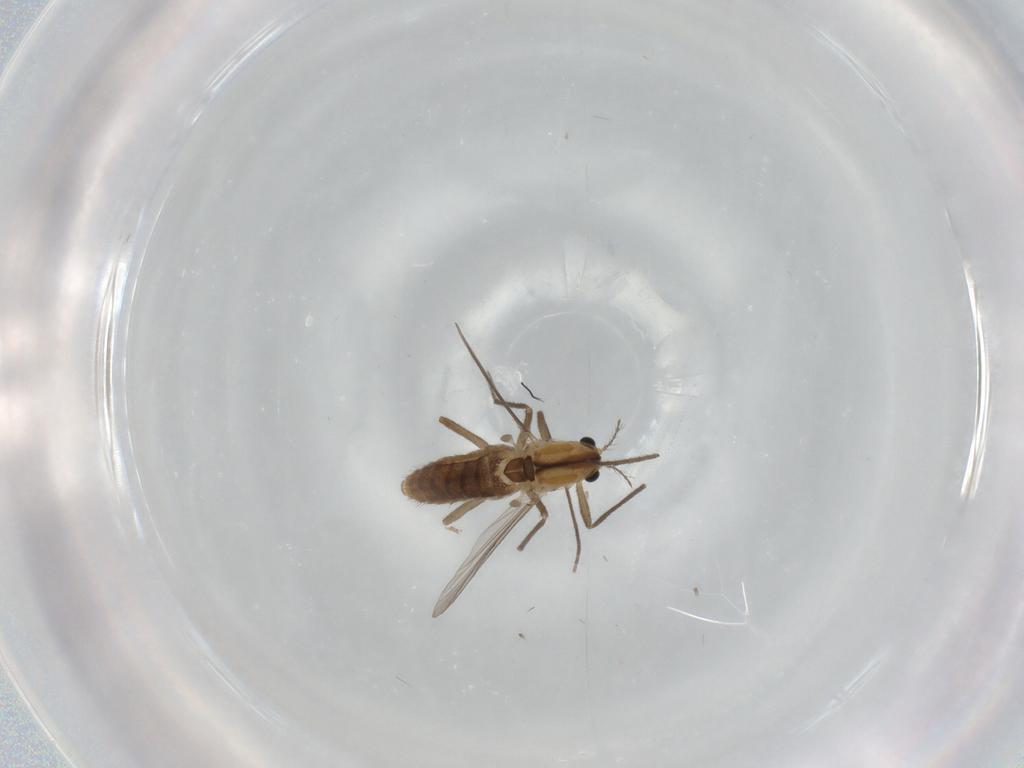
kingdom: Animalia
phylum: Arthropoda
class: Insecta
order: Diptera
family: Chironomidae
